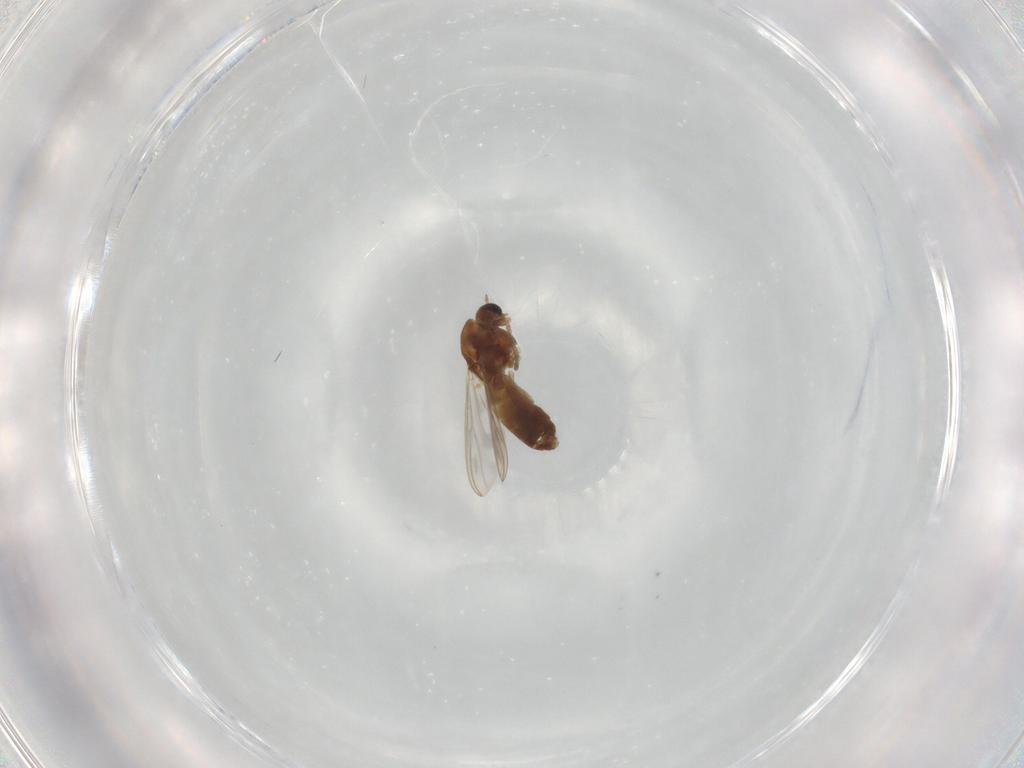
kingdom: Animalia
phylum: Arthropoda
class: Insecta
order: Diptera
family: Chironomidae
